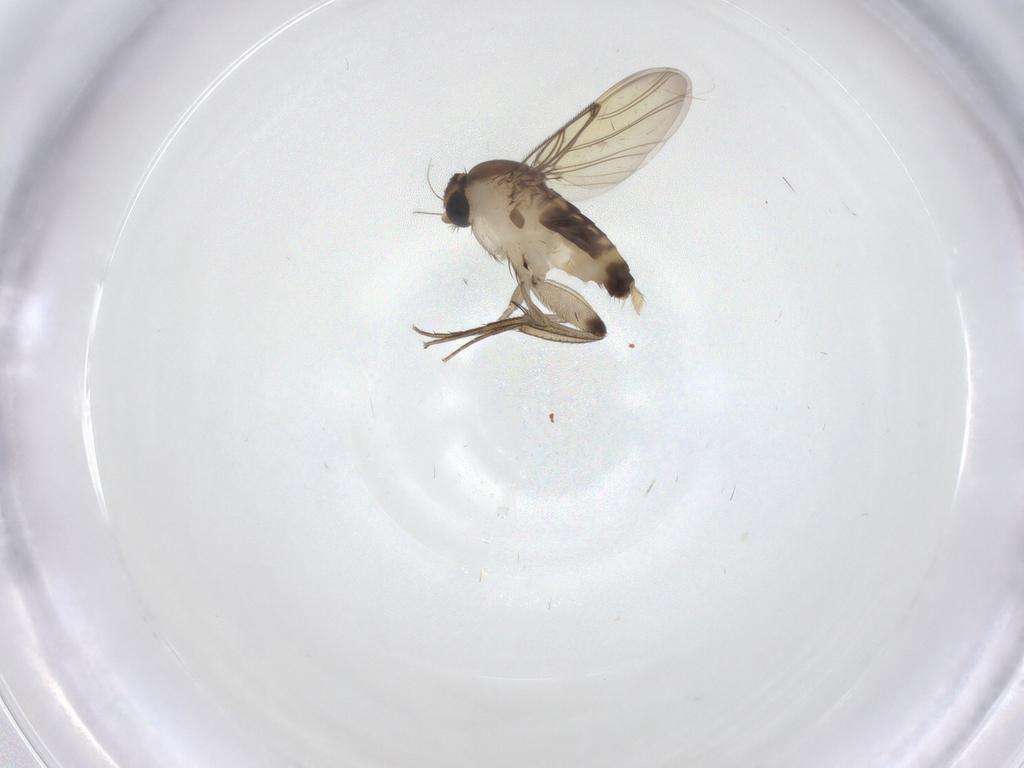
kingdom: Animalia
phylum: Arthropoda
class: Insecta
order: Diptera
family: Phoridae
